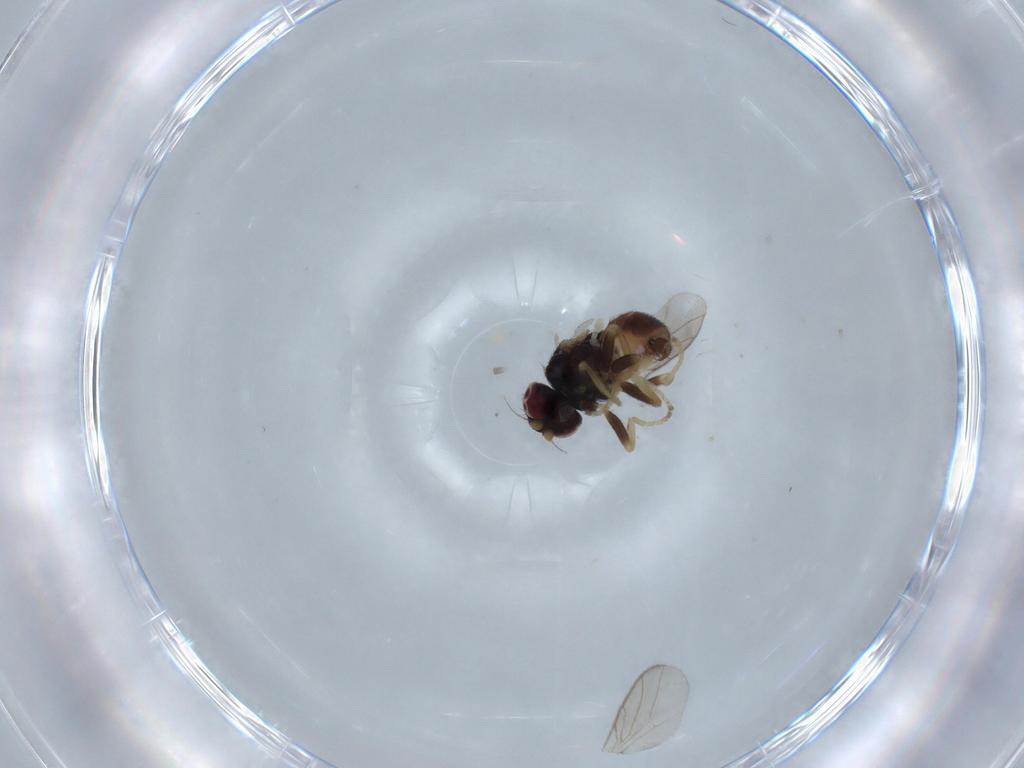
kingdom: Animalia
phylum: Arthropoda
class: Insecta
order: Diptera
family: Chloropidae
